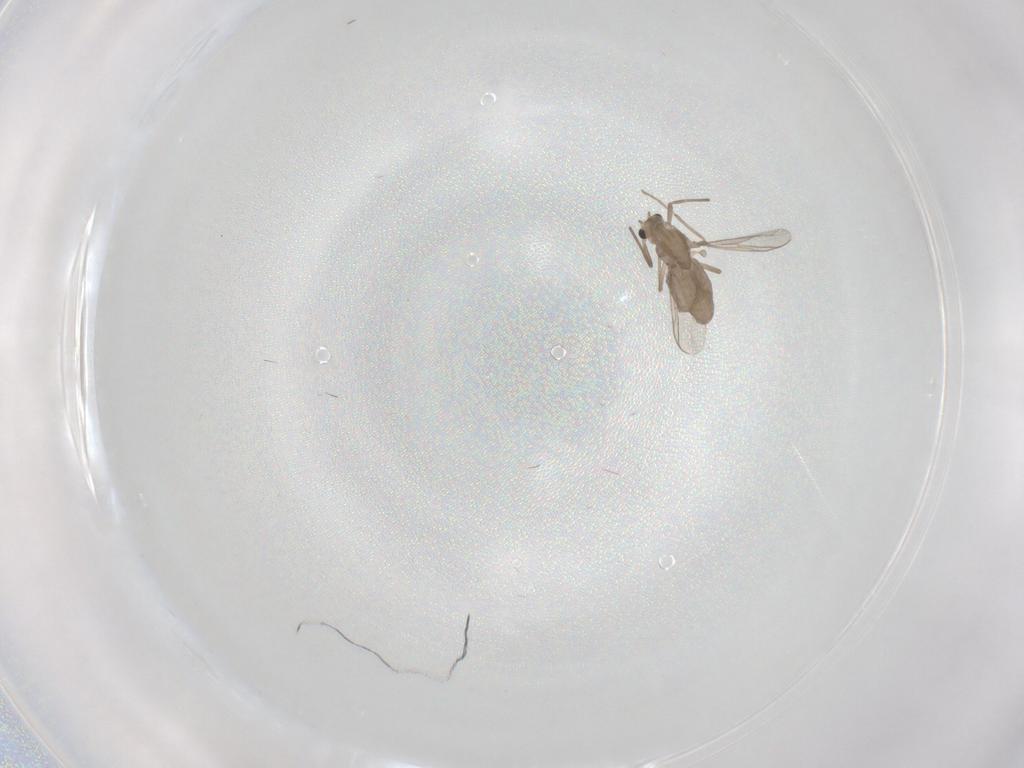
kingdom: Animalia
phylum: Arthropoda
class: Insecta
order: Diptera
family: Chironomidae
